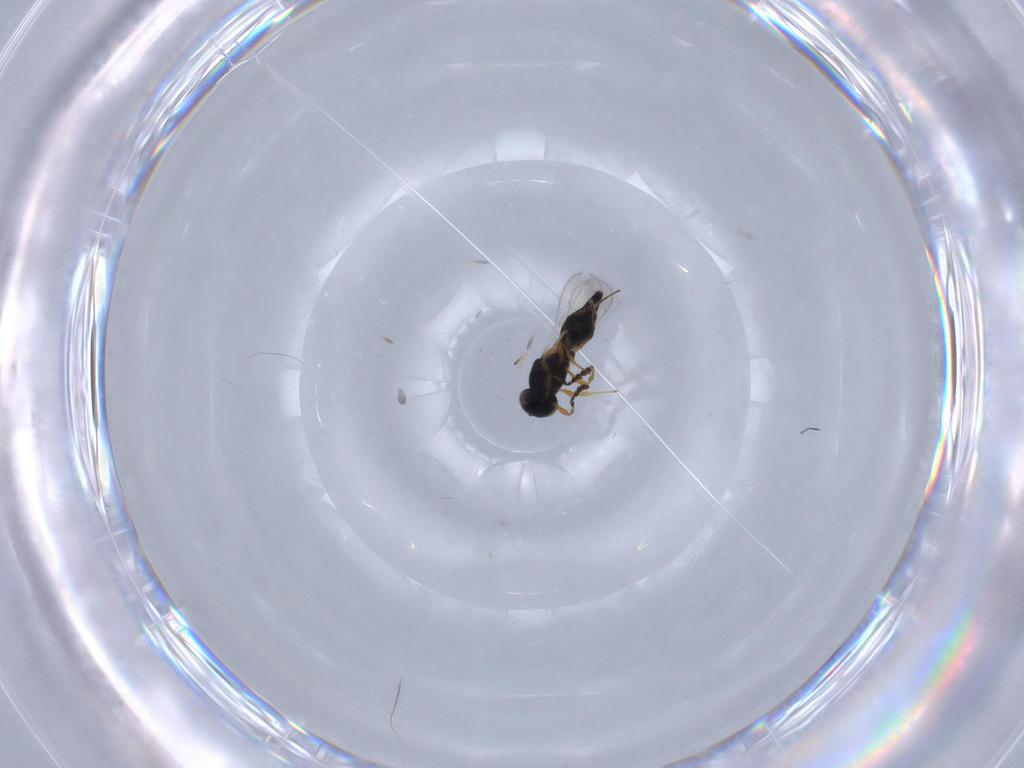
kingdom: Animalia
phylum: Arthropoda
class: Insecta
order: Hymenoptera
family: Platygastridae
